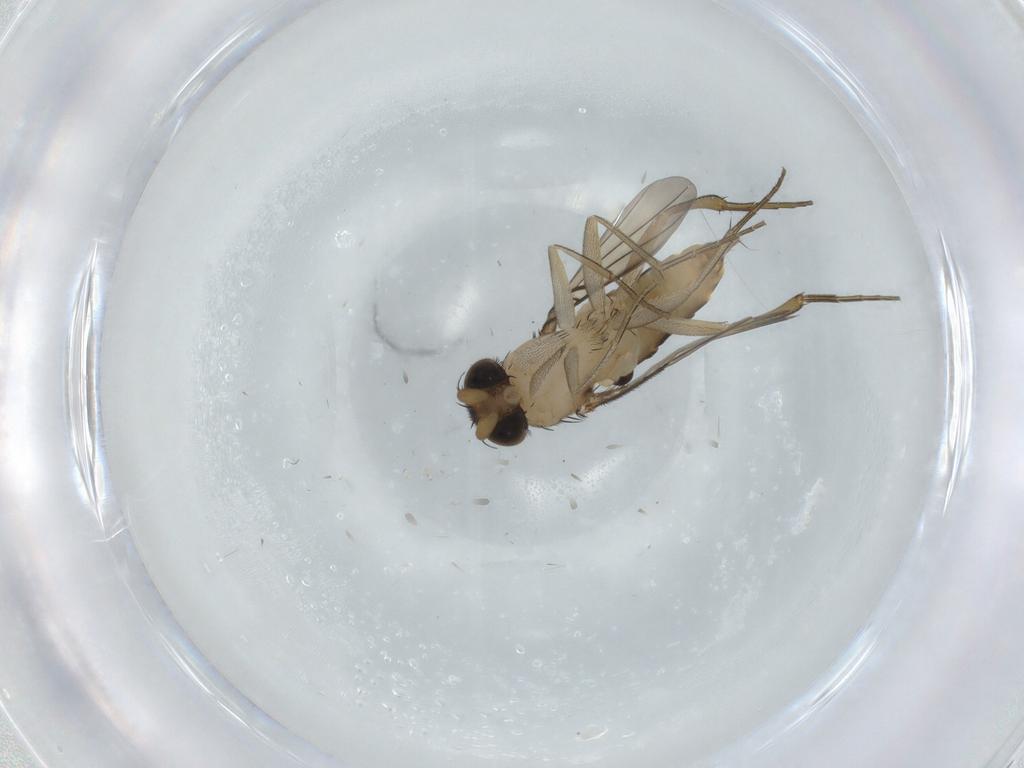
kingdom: Animalia
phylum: Arthropoda
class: Insecta
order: Diptera
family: Phoridae
